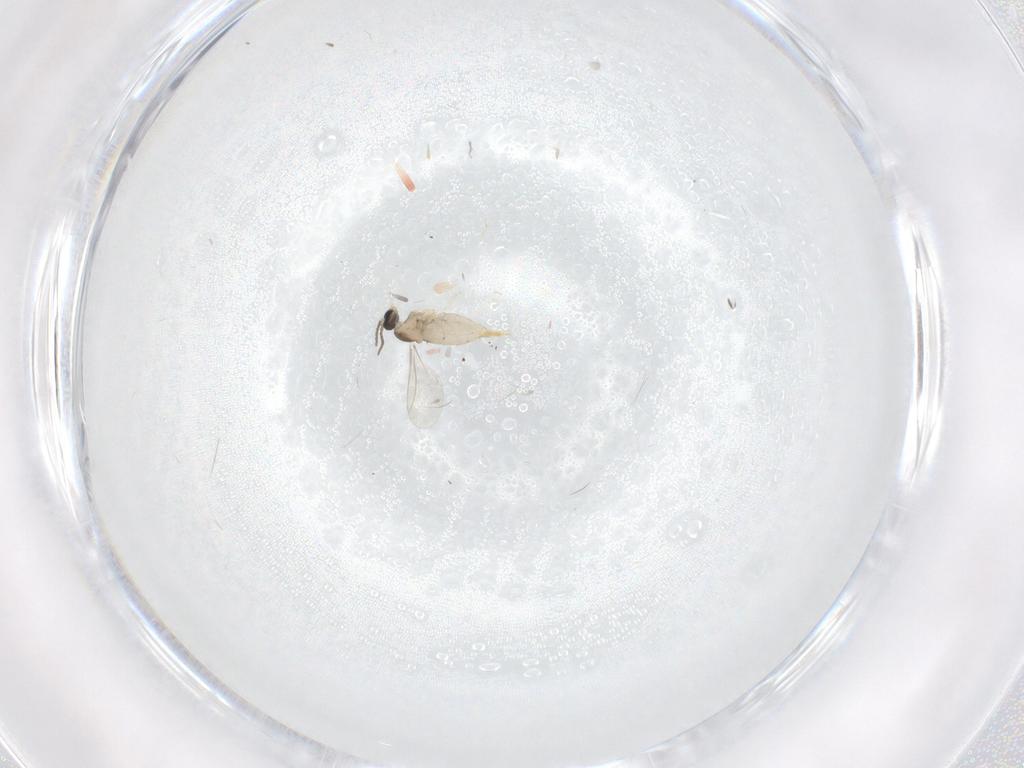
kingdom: Animalia
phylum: Arthropoda
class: Insecta
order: Diptera
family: Cecidomyiidae
